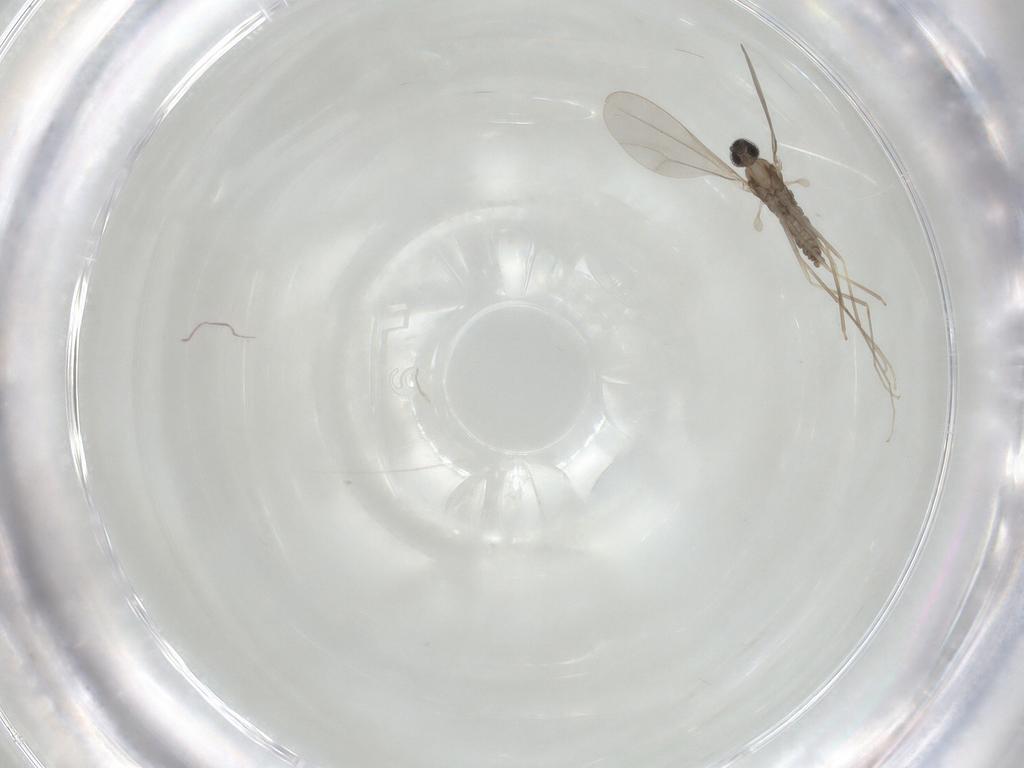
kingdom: Animalia
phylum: Arthropoda
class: Insecta
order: Diptera
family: Cecidomyiidae
